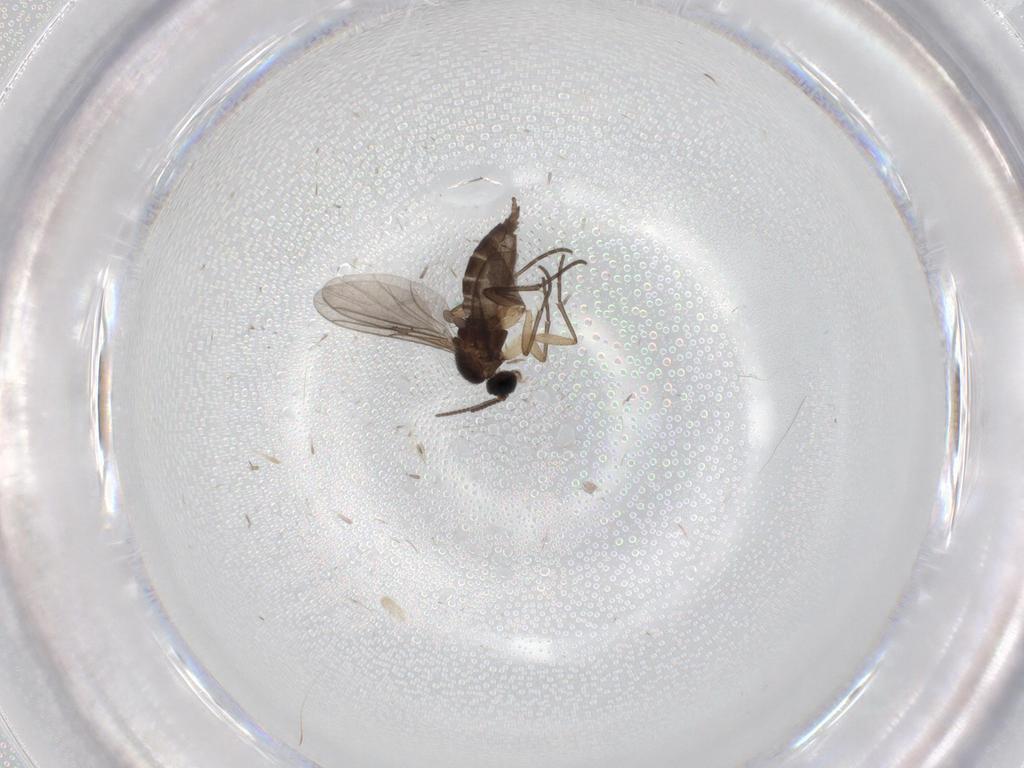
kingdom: Animalia
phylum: Arthropoda
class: Insecta
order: Diptera
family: Sciaridae
